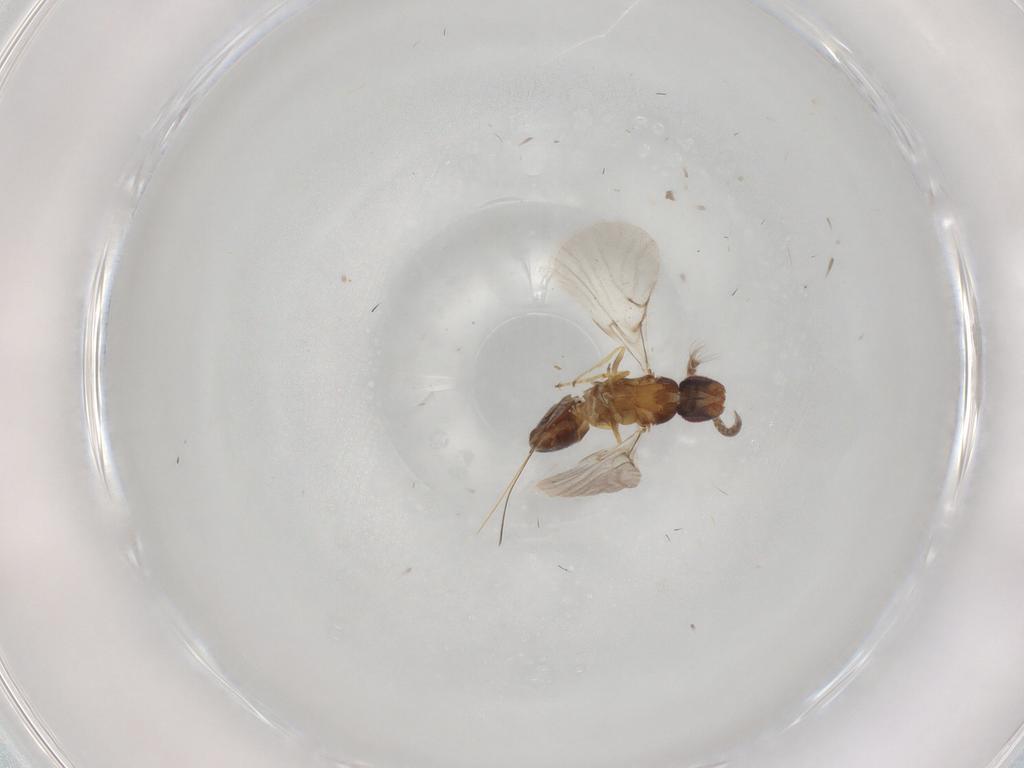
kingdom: Animalia
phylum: Arthropoda
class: Insecta
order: Hymenoptera
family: Agaonidae
